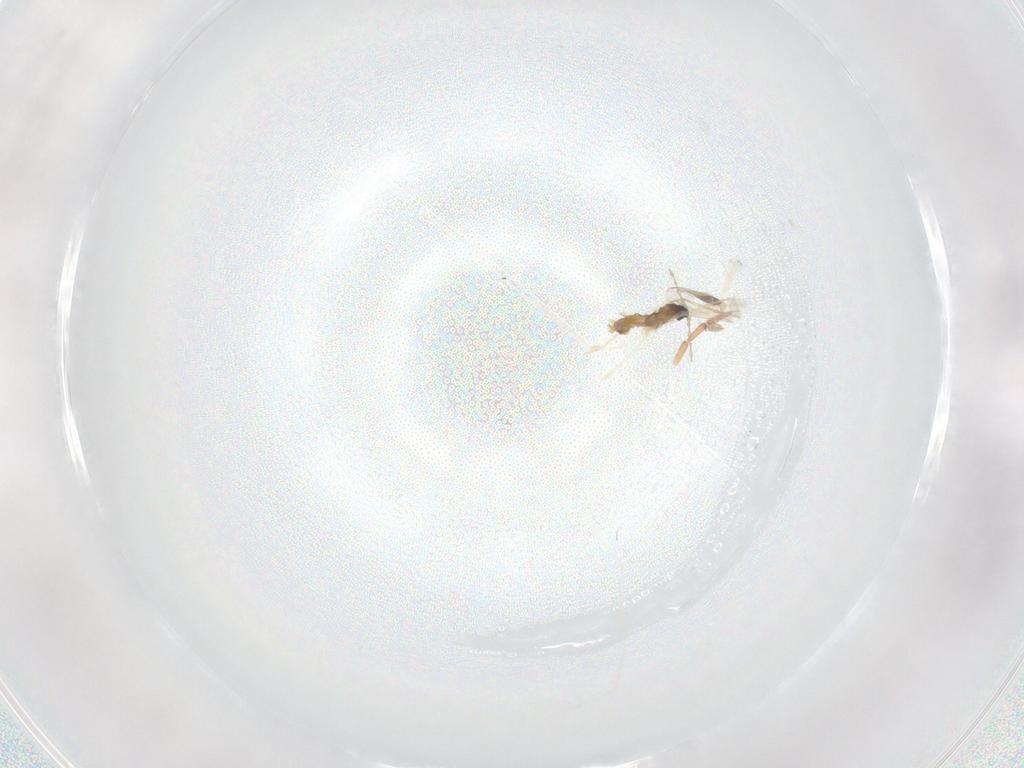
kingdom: Animalia
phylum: Arthropoda
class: Insecta
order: Diptera
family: Cecidomyiidae
